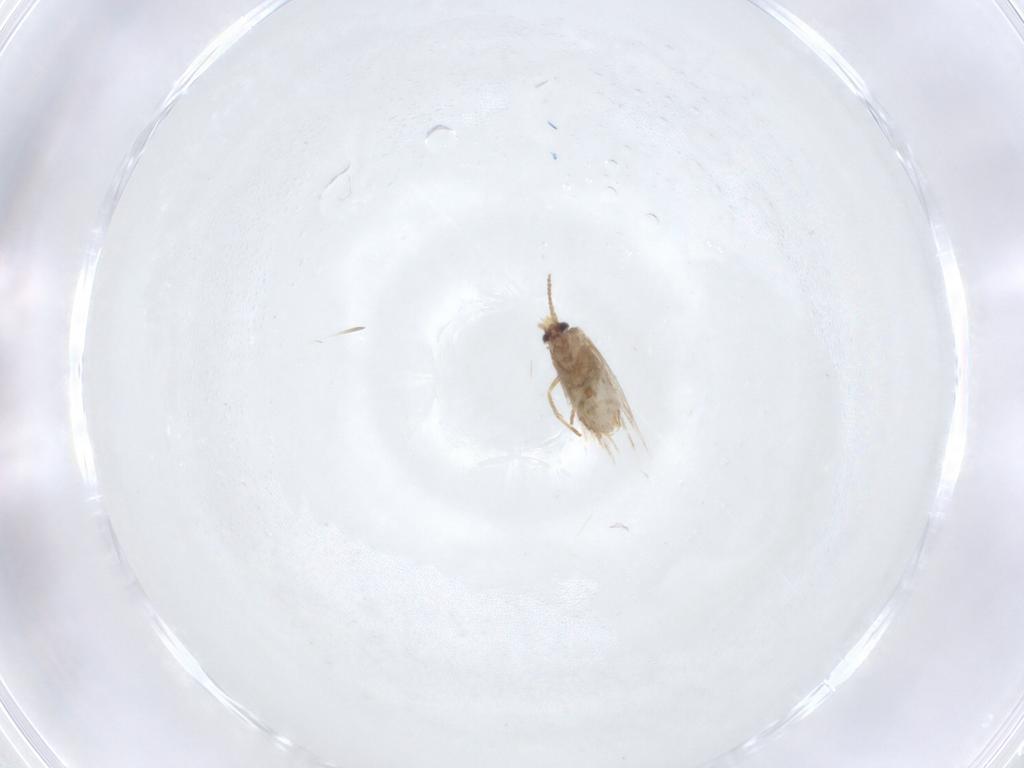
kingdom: Animalia
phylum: Arthropoda
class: Insecta
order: Lepidoptera
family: Nepticulidae
